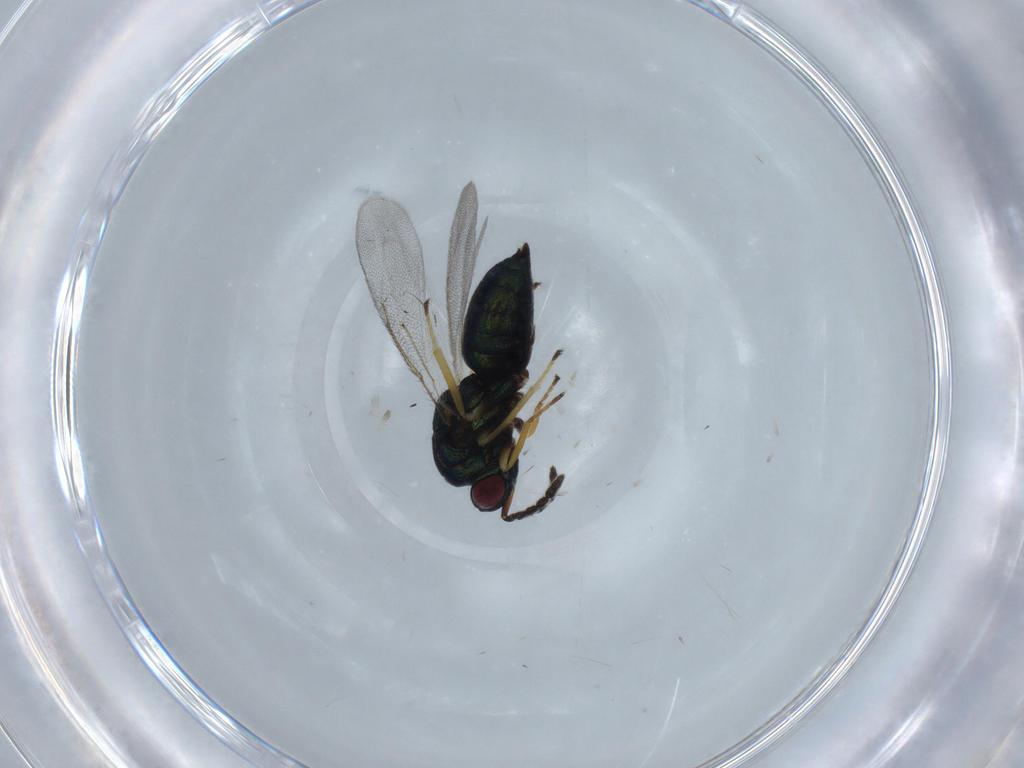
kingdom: Animalia
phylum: Arthropoda
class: Insecta
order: Hymenoptera
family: Eulophidae
